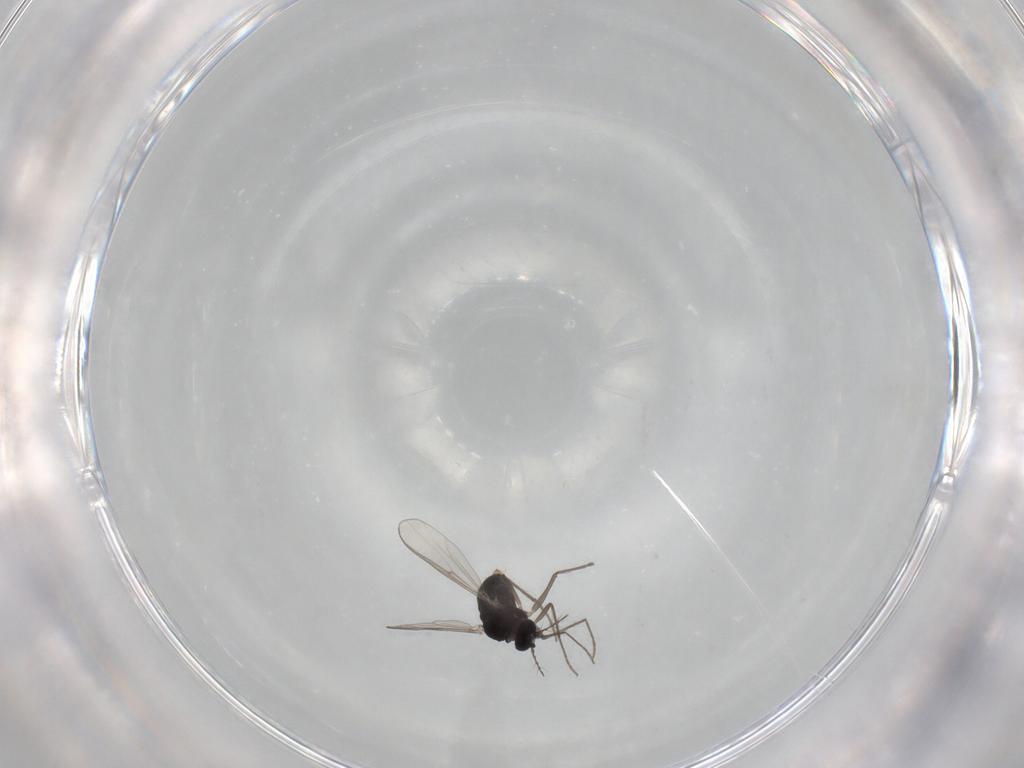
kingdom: Animalia
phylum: Arthropoda
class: Insecta
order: Diptera
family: Chironomidae
